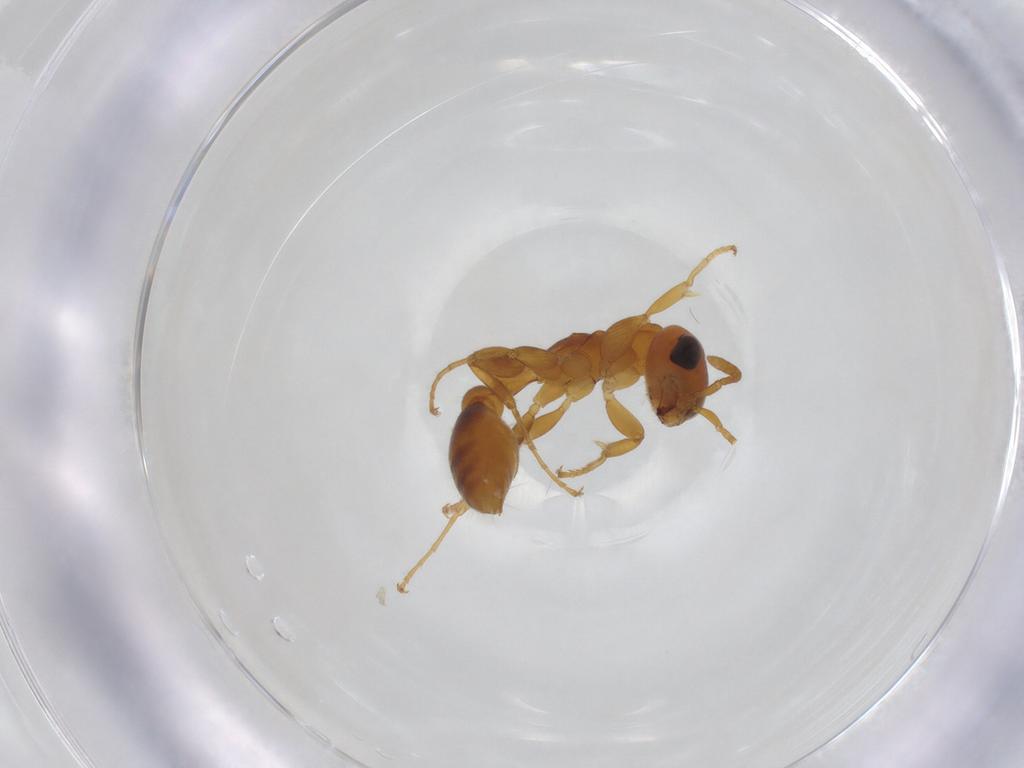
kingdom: Animalia
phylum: Arthropoda
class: Insecta
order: Hymenoptera
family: Formicidae
